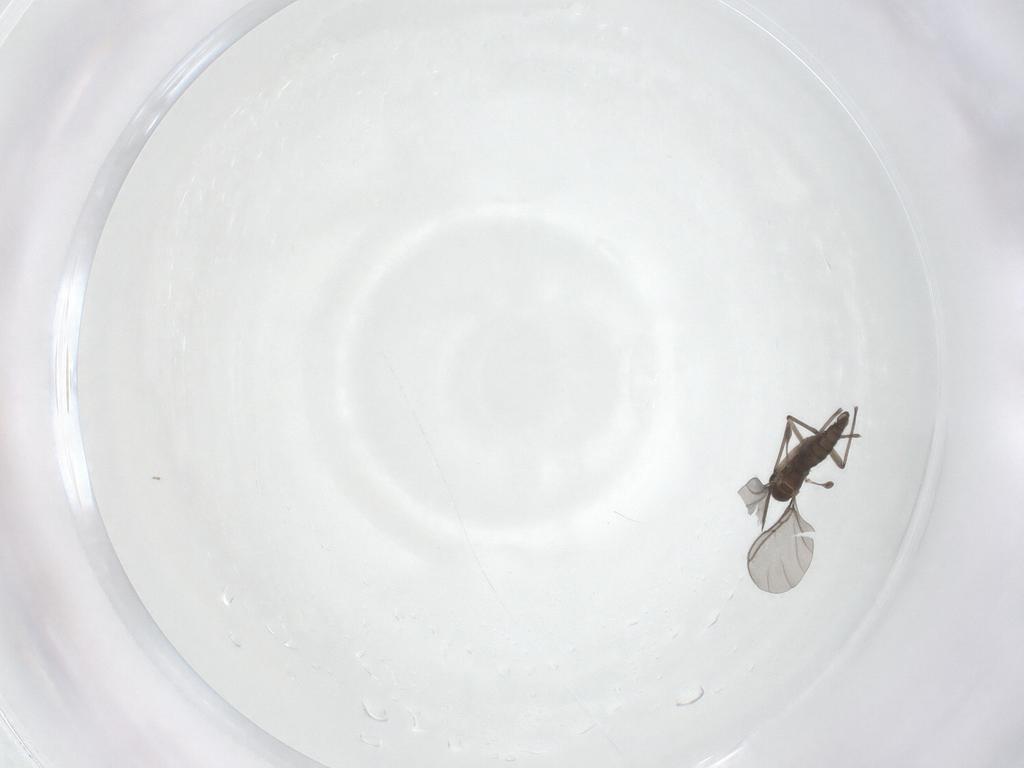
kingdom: Animalia
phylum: Arthropoda
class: Insecta
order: Diptera
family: Sciaridae
